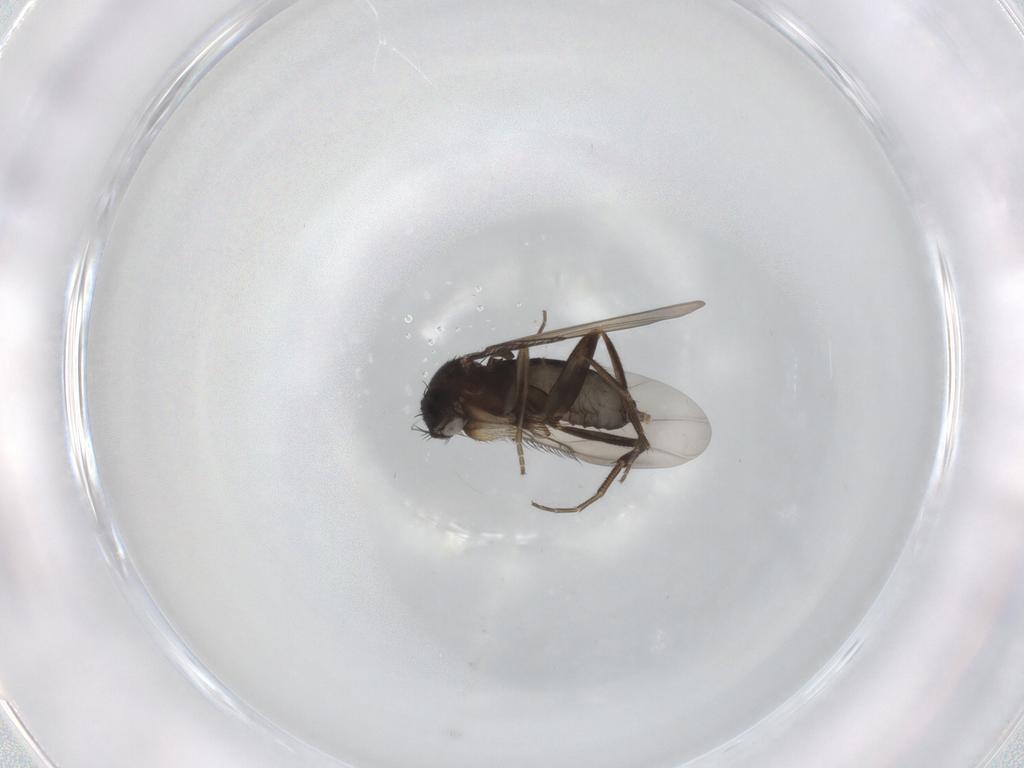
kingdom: Animalia
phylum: Arthropoda
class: Insecta
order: Diptera
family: Phoridae
